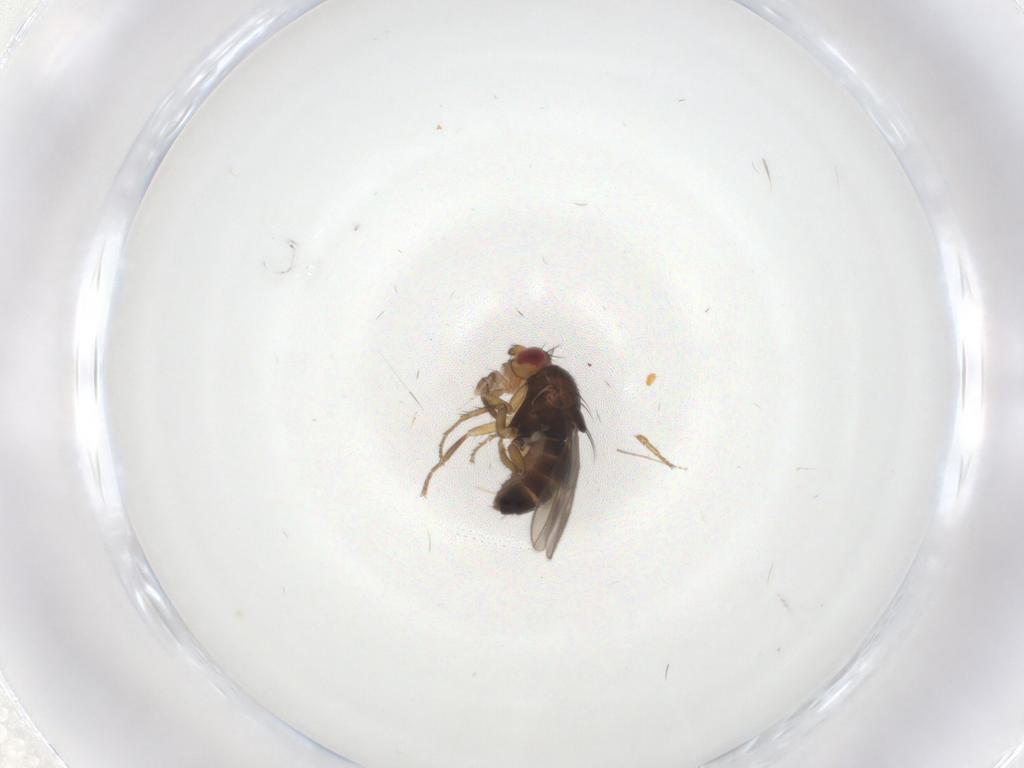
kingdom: Animalia
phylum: Arthropoda
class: Insecta
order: Diptera
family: Sphaeroceridae
